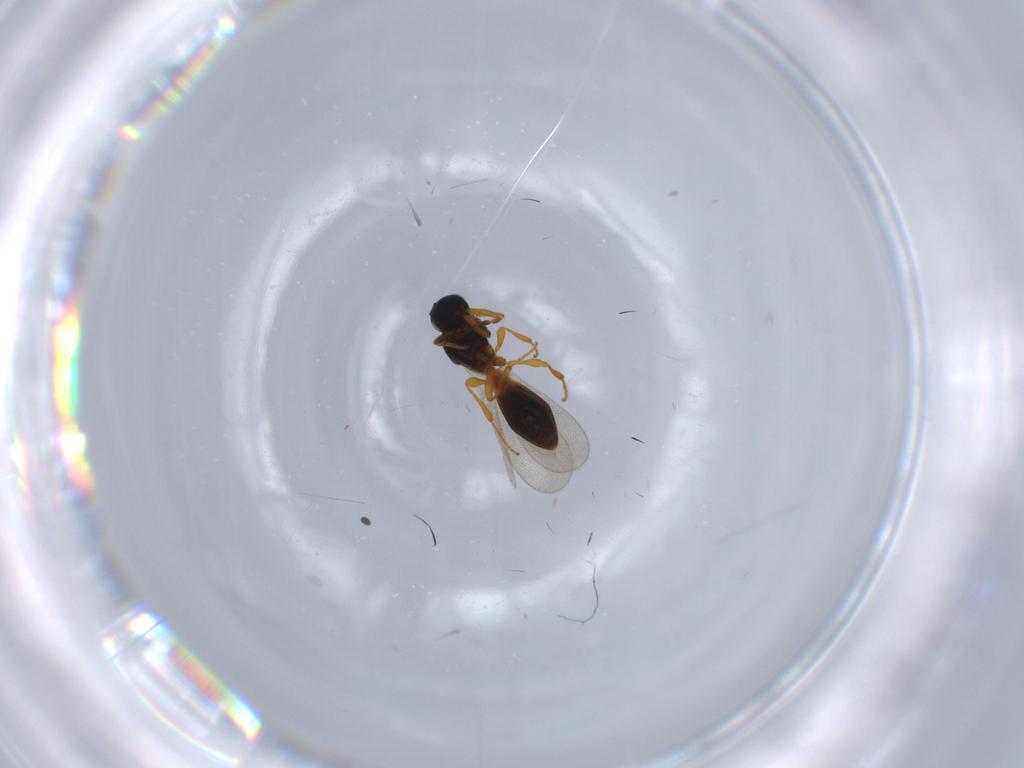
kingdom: Animalia
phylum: Arthropoda
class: Insecta
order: Hymenoptera
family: Platygastridae
